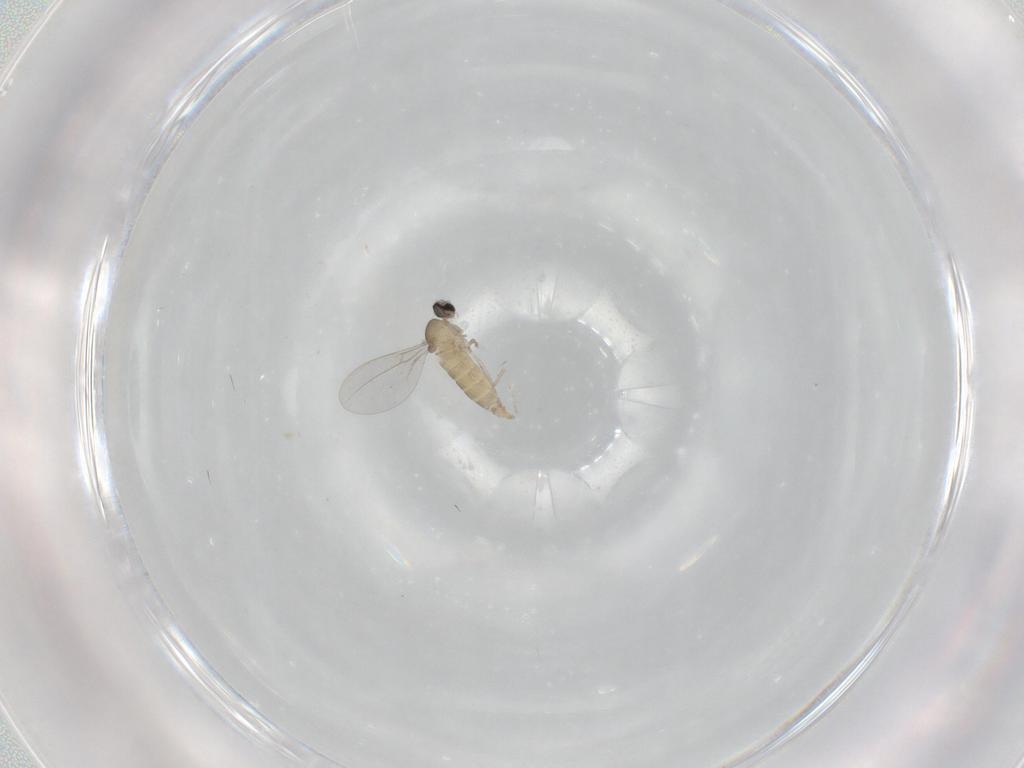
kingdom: Animalia
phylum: Arthropoda
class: Insecta
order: Diptera
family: Cecidomyiidae
